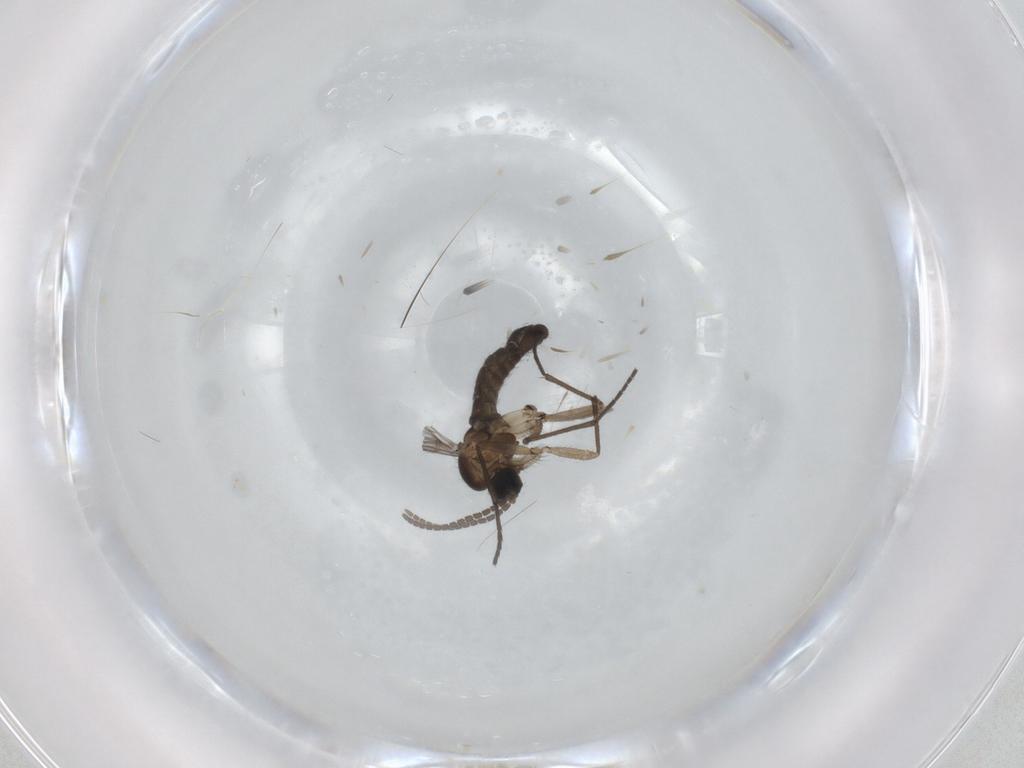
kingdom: Animalia
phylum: Arthropoda
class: Insecta
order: Diptera
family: Sciaridae
